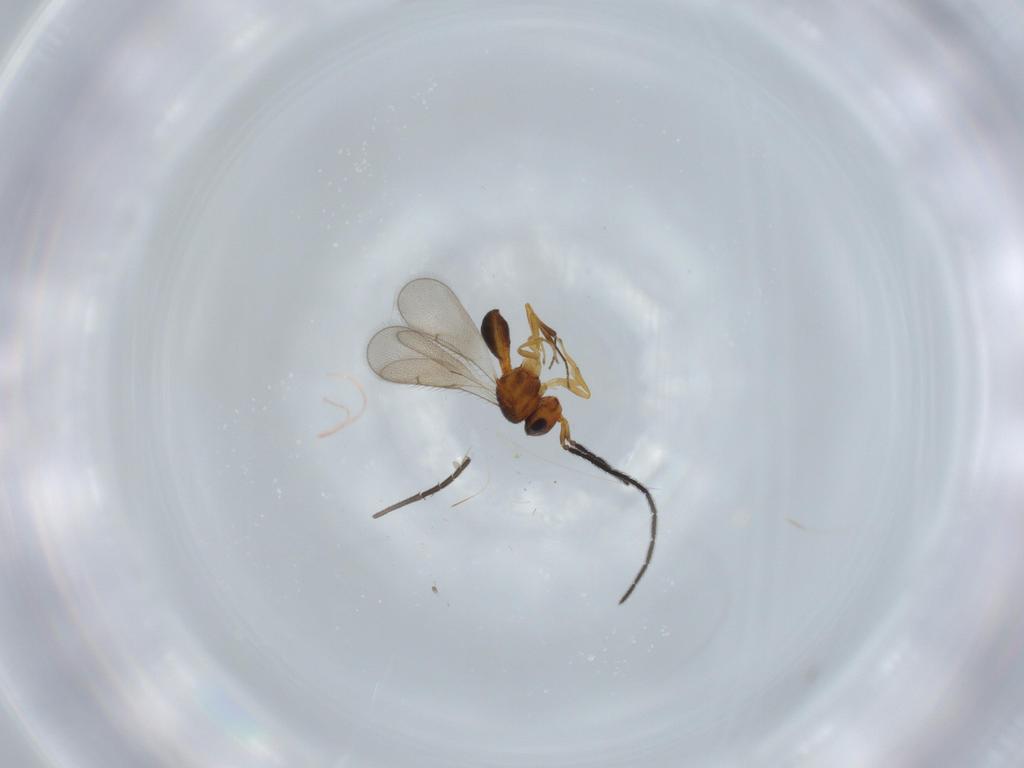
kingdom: Animalia
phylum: Arthropoda
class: Insecta
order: Hymenoptera
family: Scelionidae
